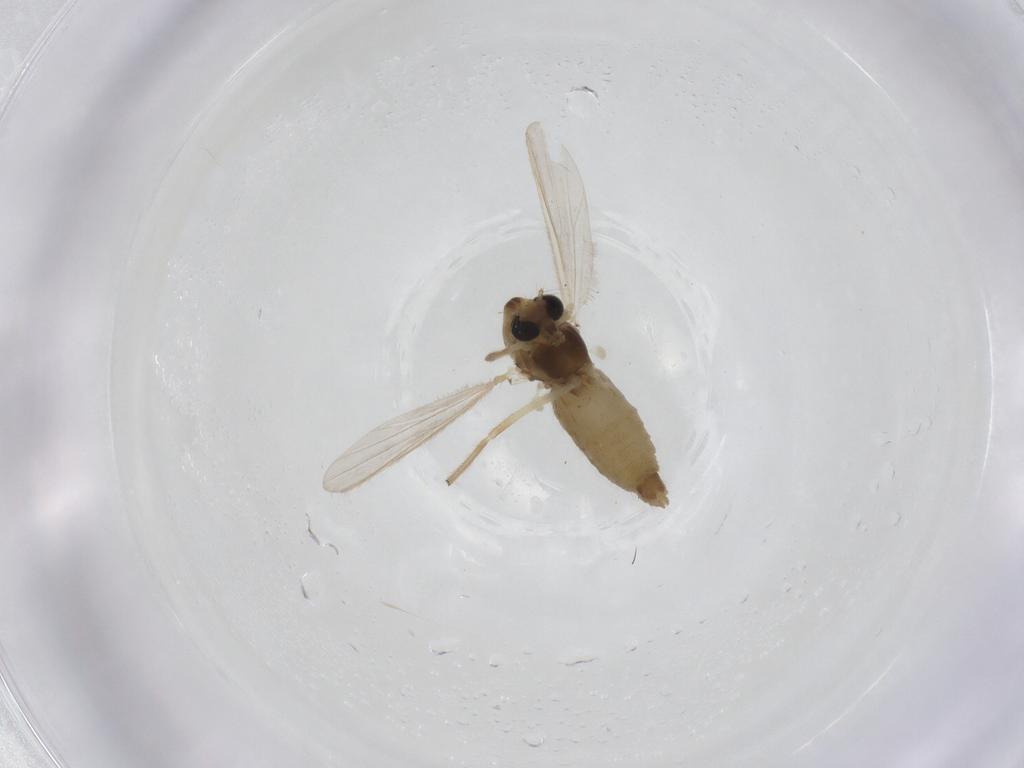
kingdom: Animalia
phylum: Arthropoda
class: Insecta
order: Diptera
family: Chironomidae
